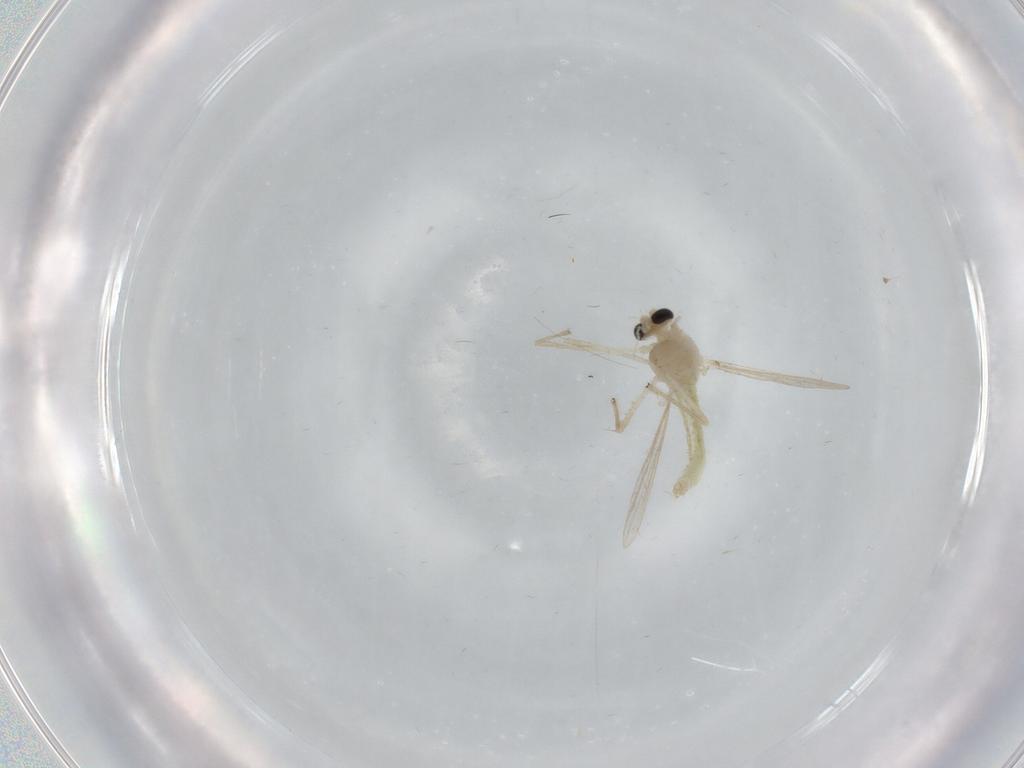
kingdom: Animalia
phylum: Arthropoda
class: Insecta
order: Diptera
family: Chironomidae
